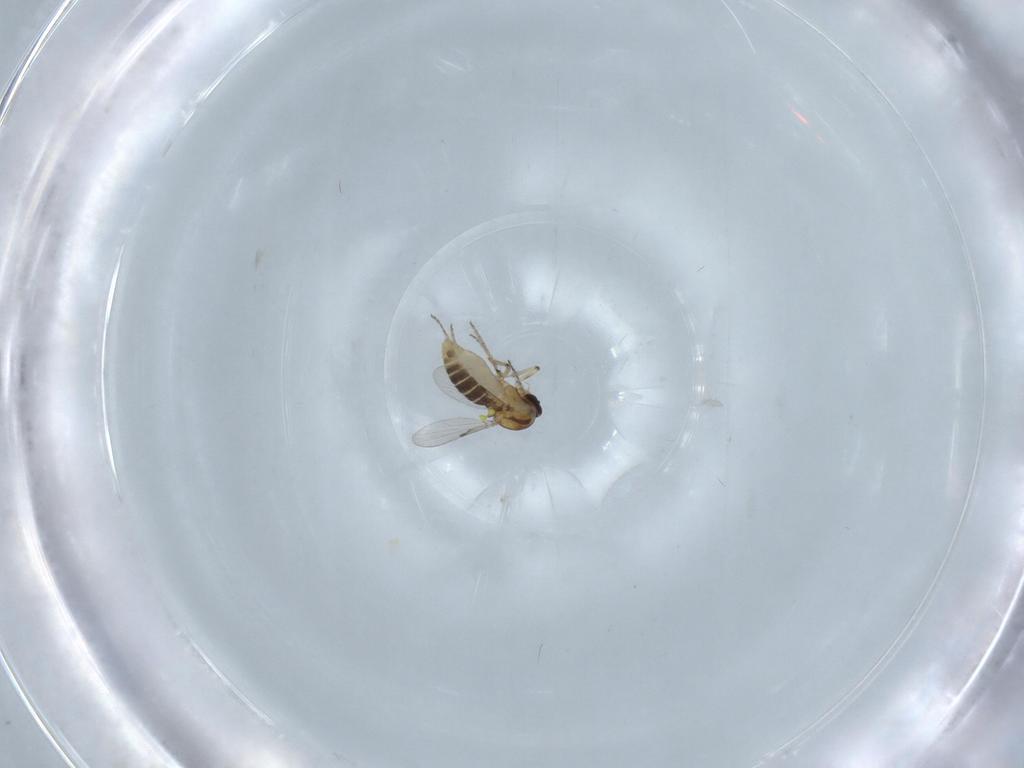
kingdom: Animalia
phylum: Arthropoda
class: Insecta
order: Diptera
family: Ceratopogonidae
